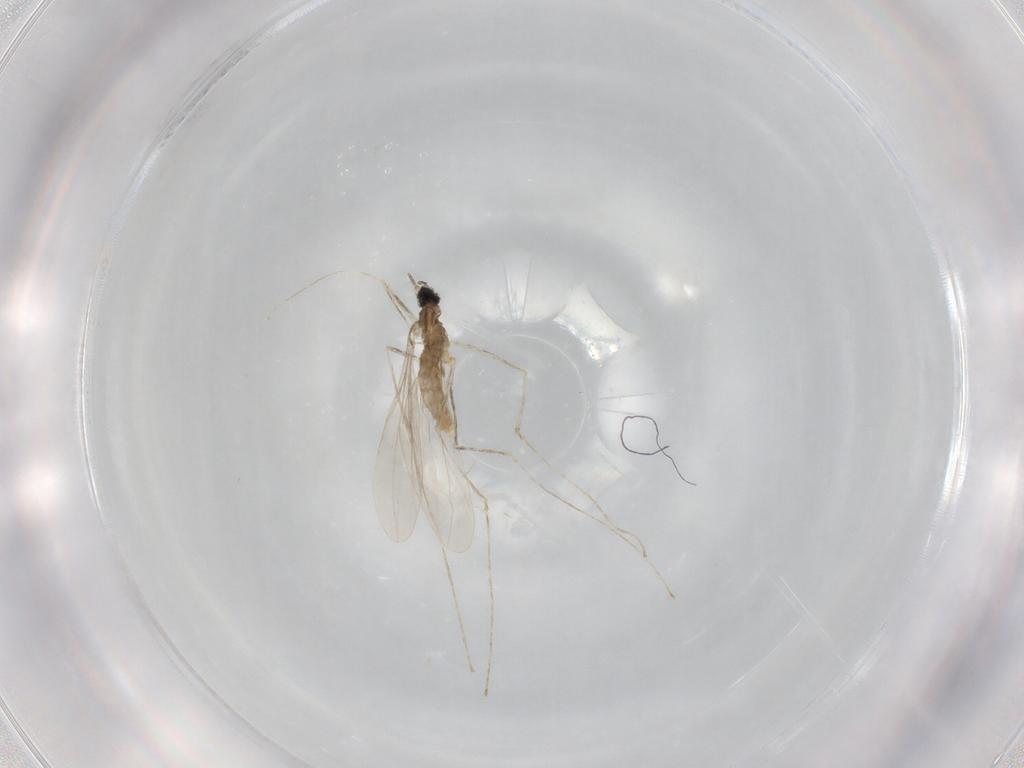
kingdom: Animalia
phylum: Arthropoda
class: Insecta
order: Diptera
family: Cecidomyiidae
